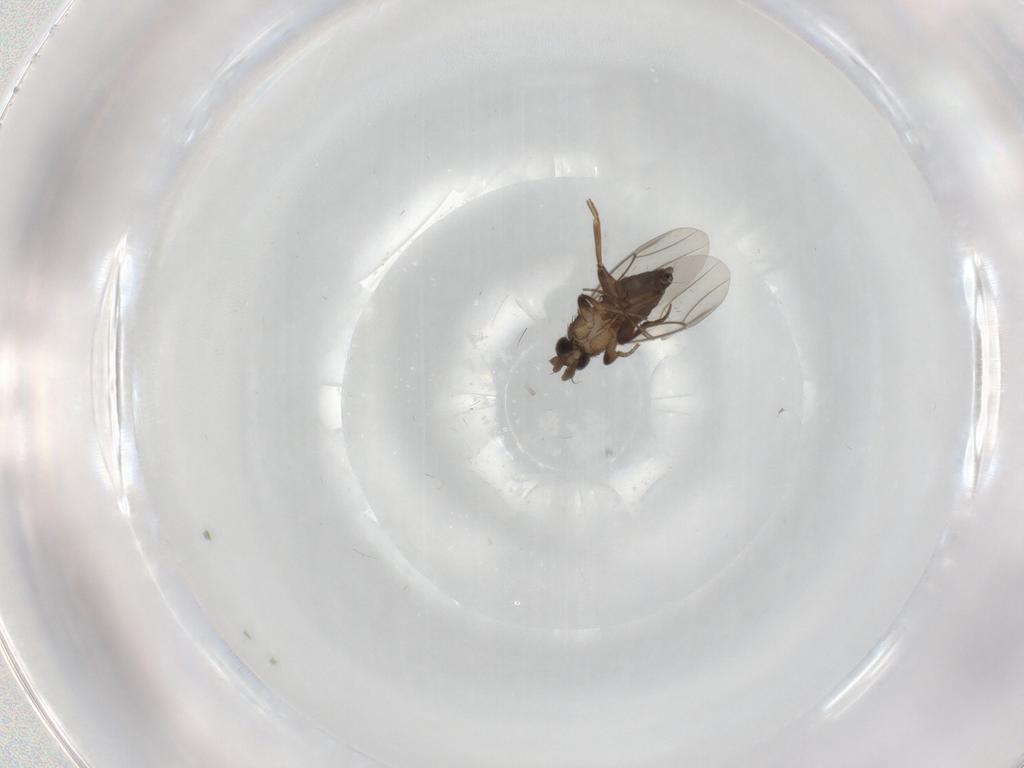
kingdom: Animalia
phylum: Arthropoda
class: Insecta
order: Diptera
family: Phoridae
